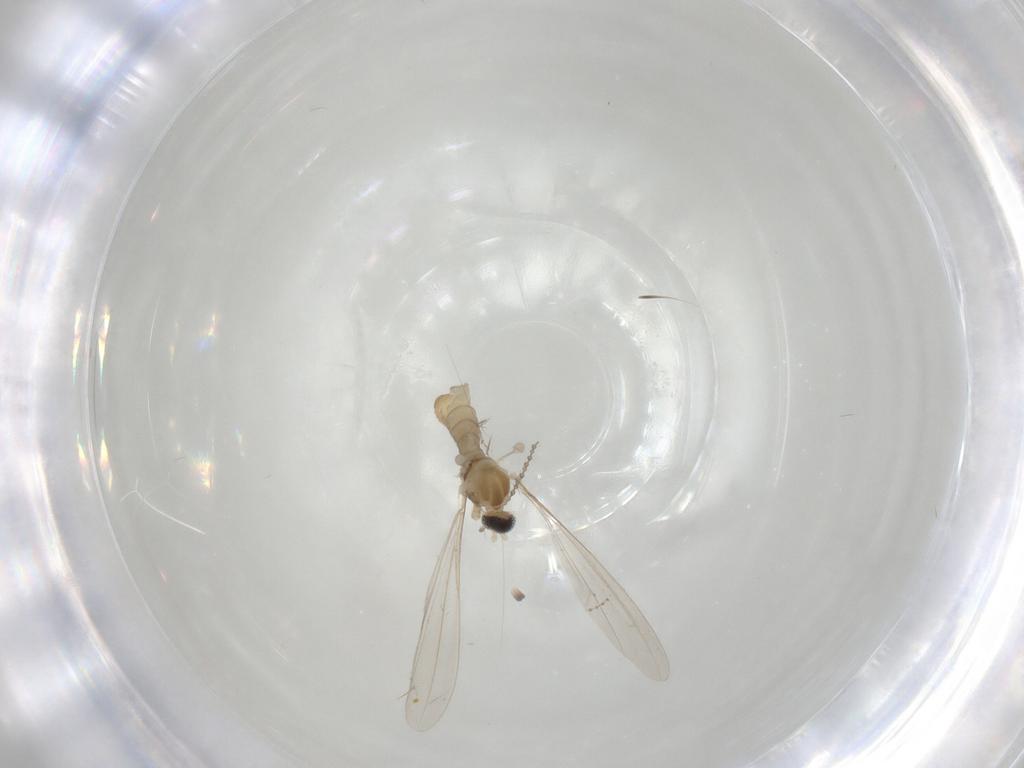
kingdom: Animalia
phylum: Arthropoda
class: Insecta
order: Diptera
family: Cecidomyiidae
